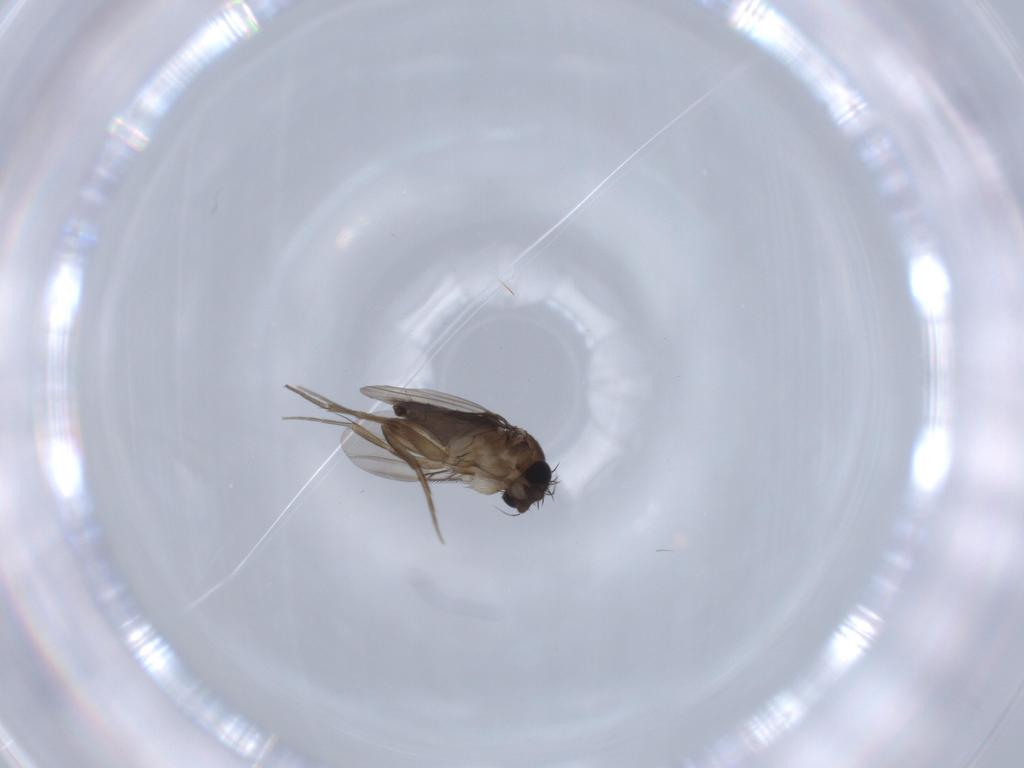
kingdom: Animalia
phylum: Arthropoda
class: Insecta
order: Diptera
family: Phoridae
